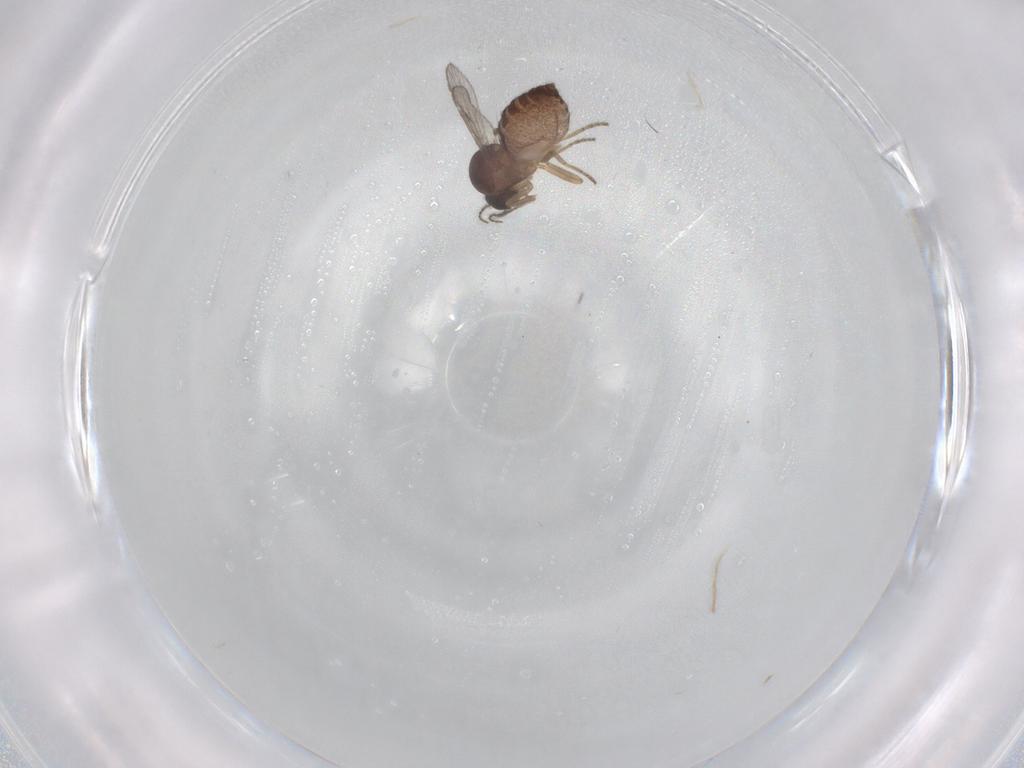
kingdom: Animalia
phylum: Arthropoda
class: Insecta
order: Diptera
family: Ceratopogonidae
